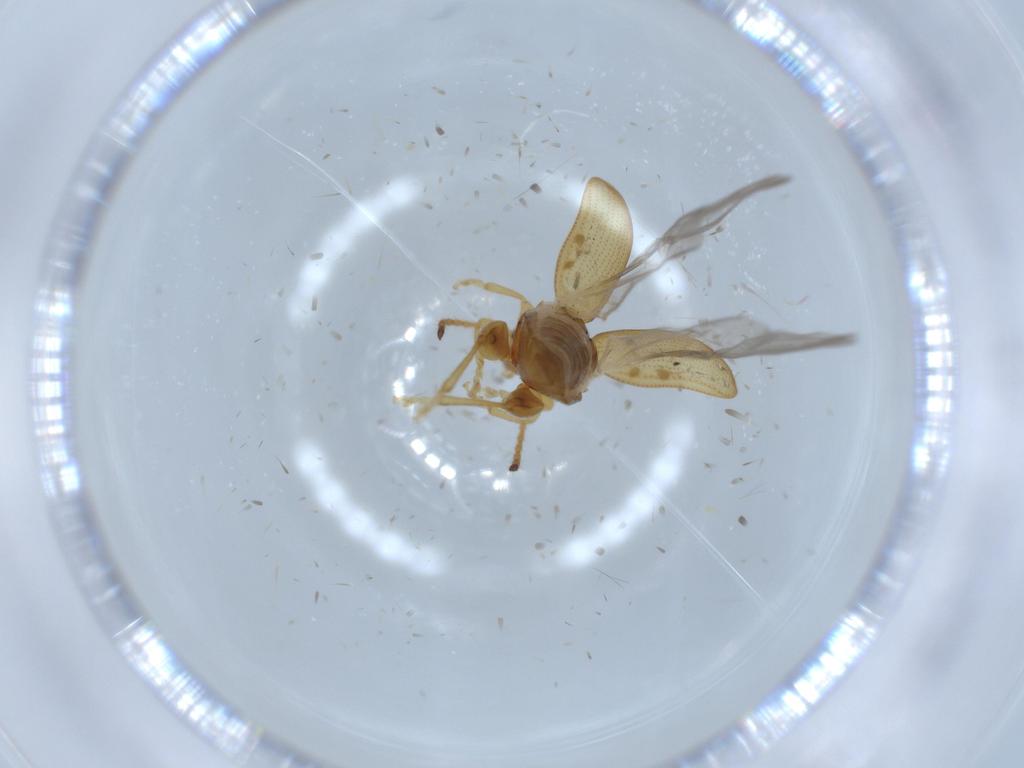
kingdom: Animalia
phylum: Arthropoda
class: Insecta
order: Coleoptera
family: Chrysomelidae
